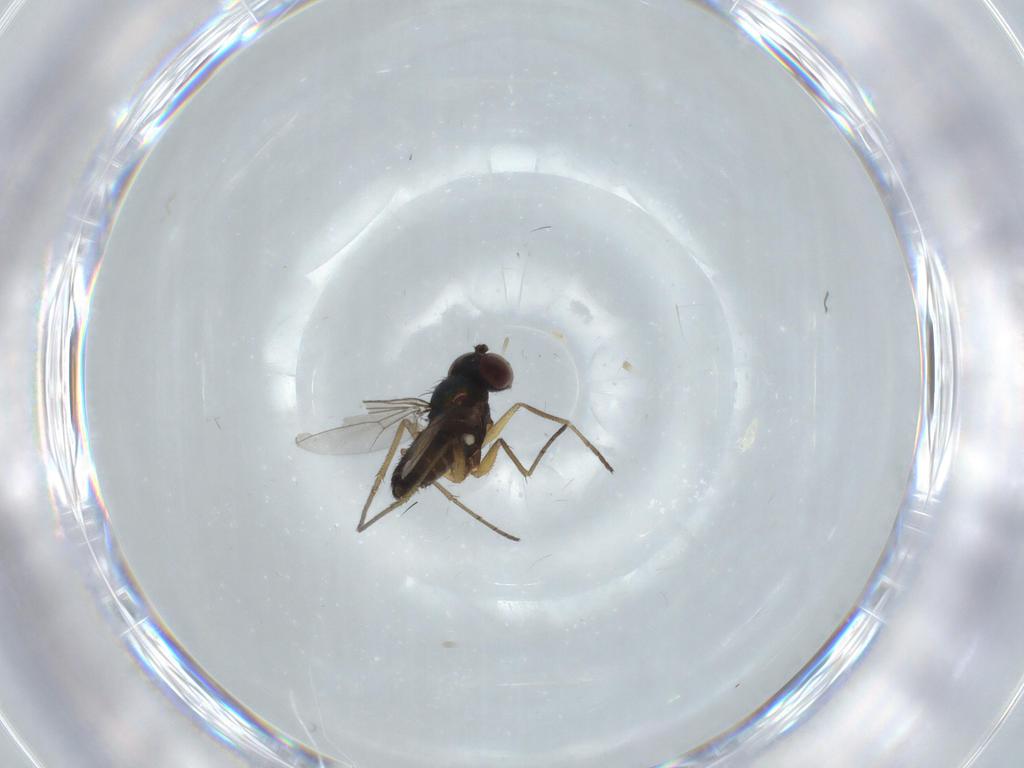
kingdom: Animalia
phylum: Arthropoda
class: Insecta
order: Diptera
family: Dolichopodidae
